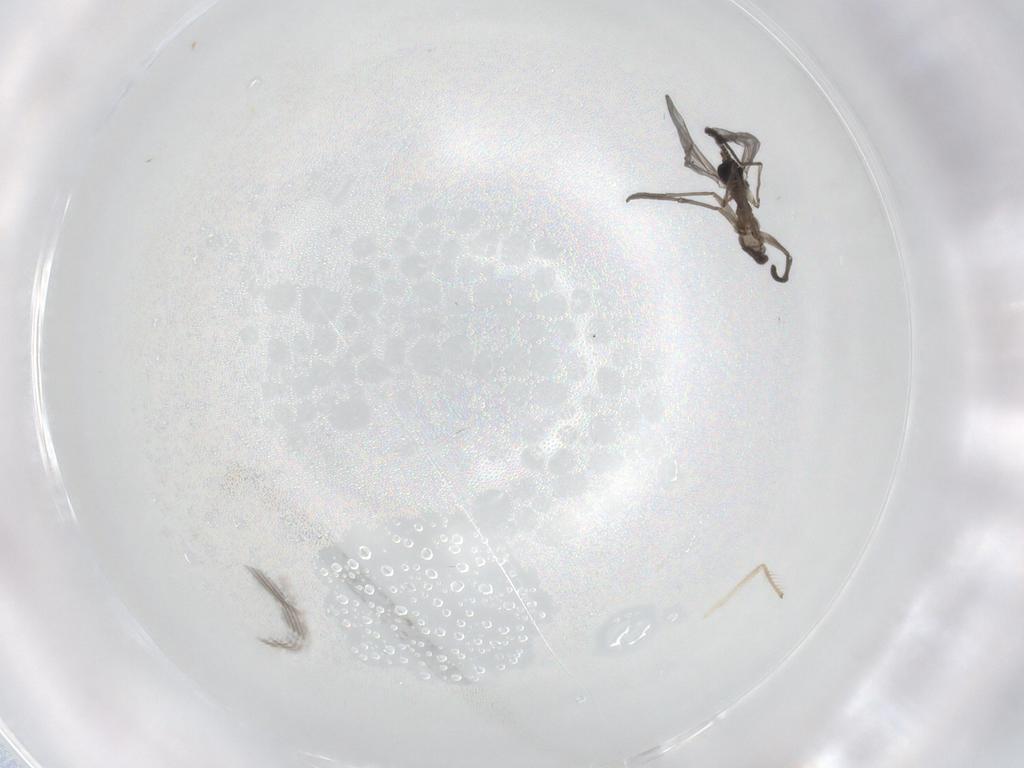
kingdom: Animalia
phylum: Arthropoda
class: Insecta
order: Diptera
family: Chironomidae
